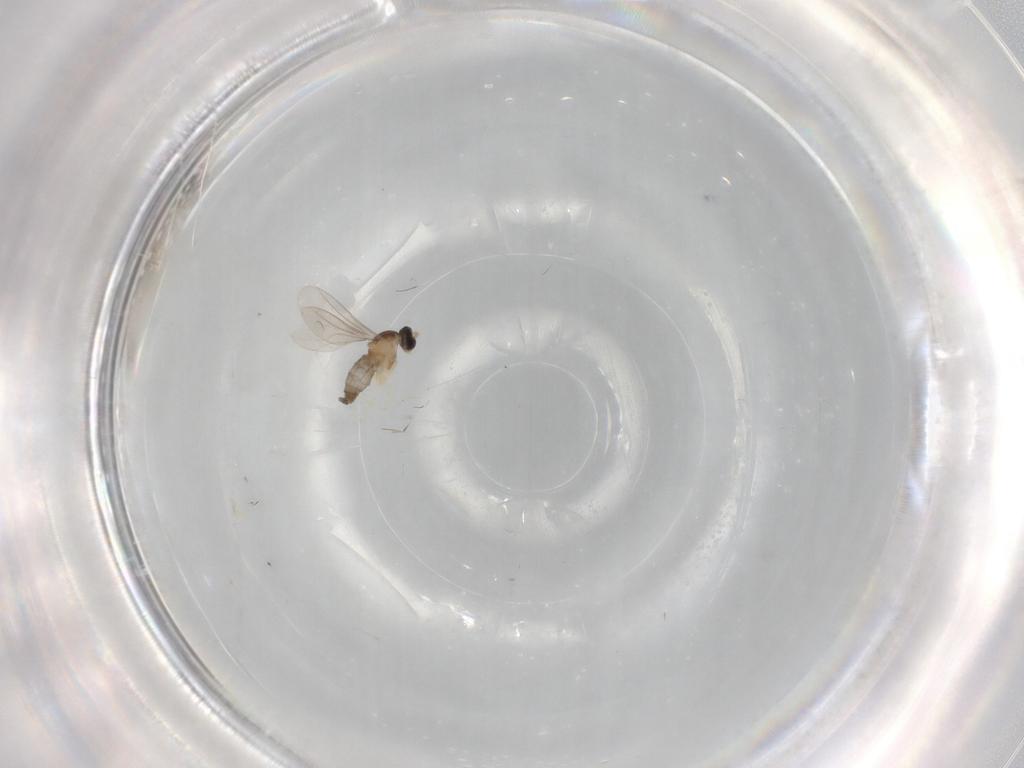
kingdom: Animalia
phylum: Arthropoda
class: Insecta
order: Diptera
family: Cecidomyiidae
